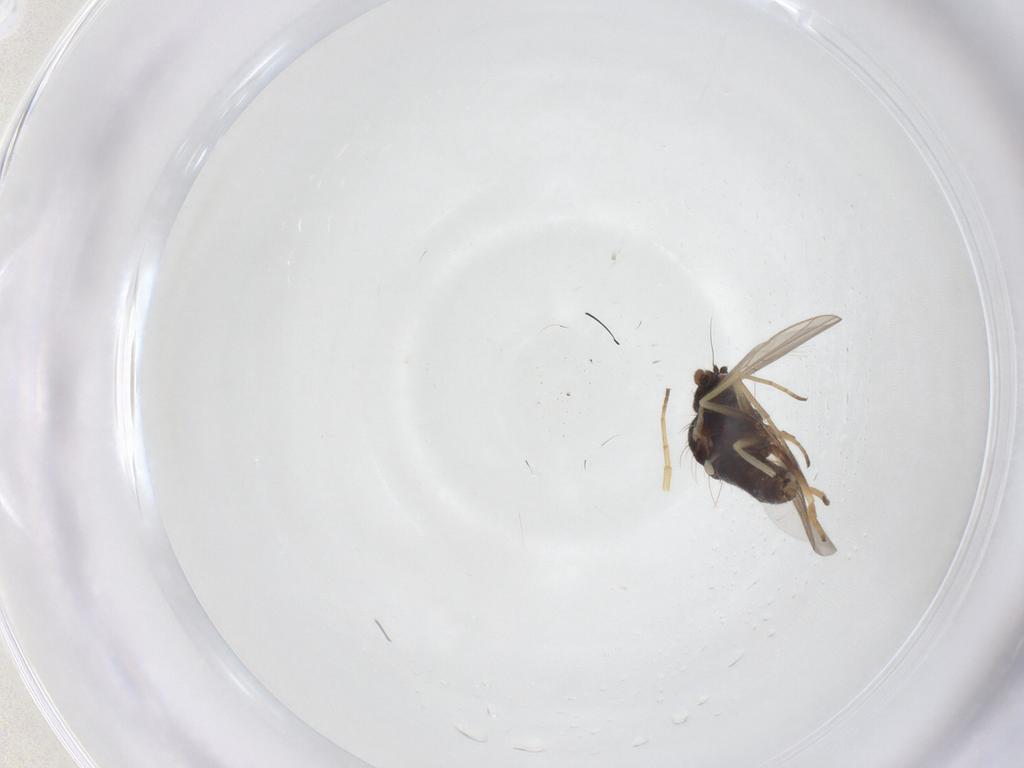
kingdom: Animalia
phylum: Arthropoda
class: Insecta
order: Diptera
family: Dolichopodidae
